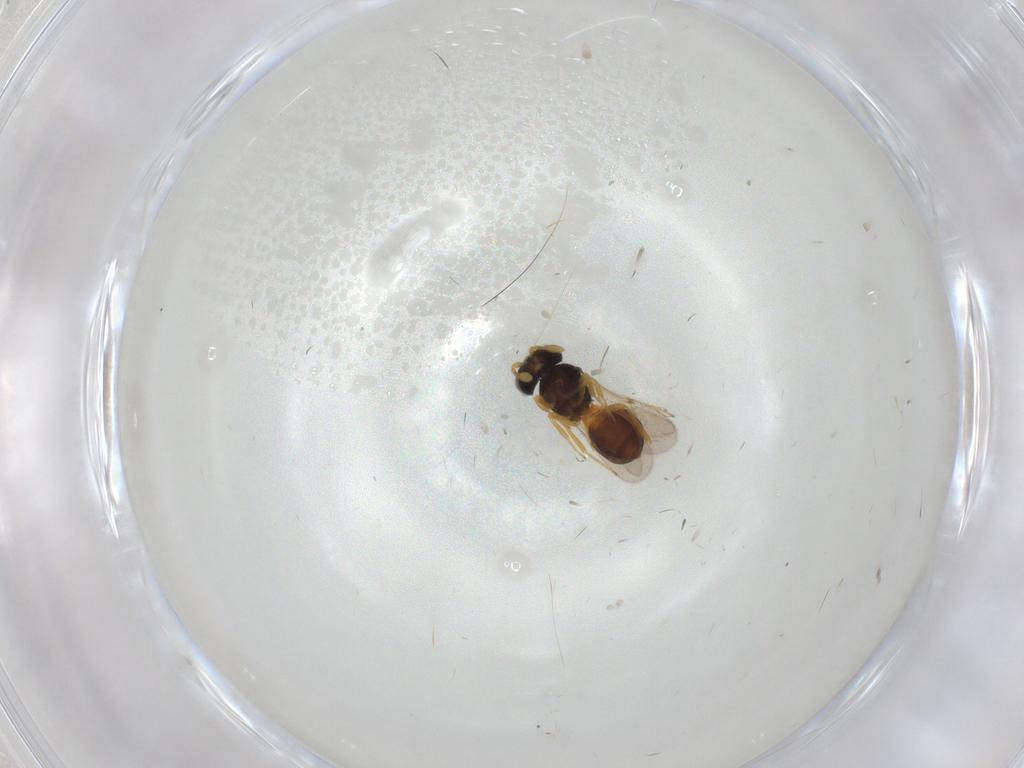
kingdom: Animalia
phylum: Arthropoda
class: Insecta
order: Hymenoptera
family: Scelionidae
